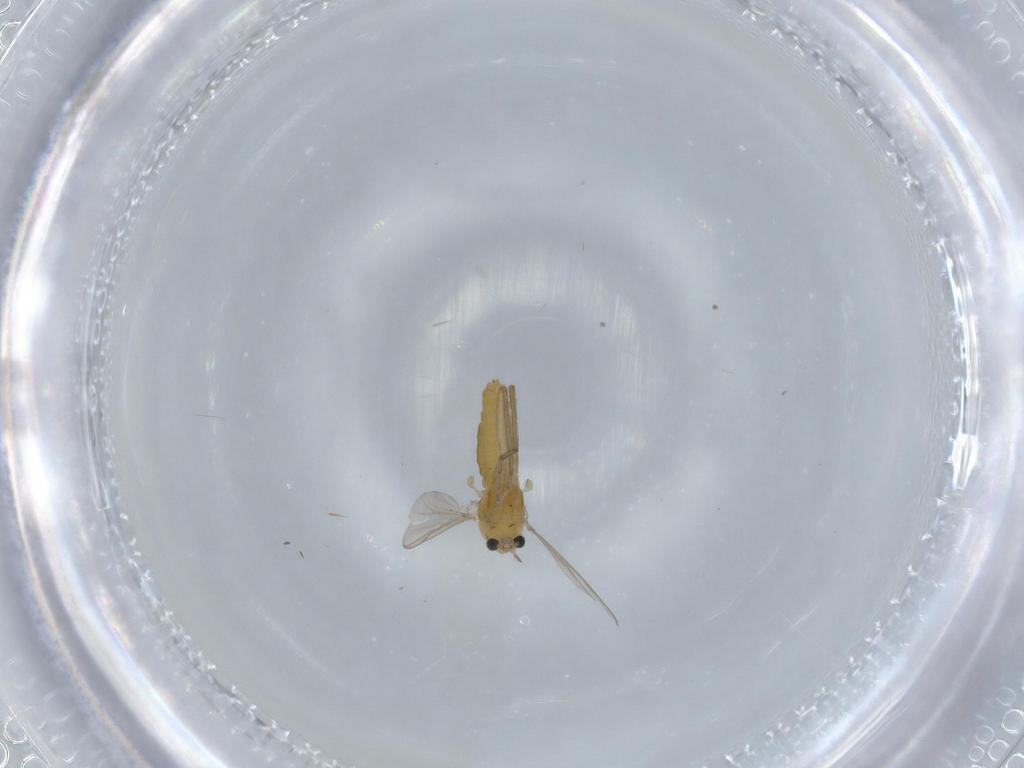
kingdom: Animalia
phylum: Arthropoda
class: Insecta
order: Diptera
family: Chironomidae
